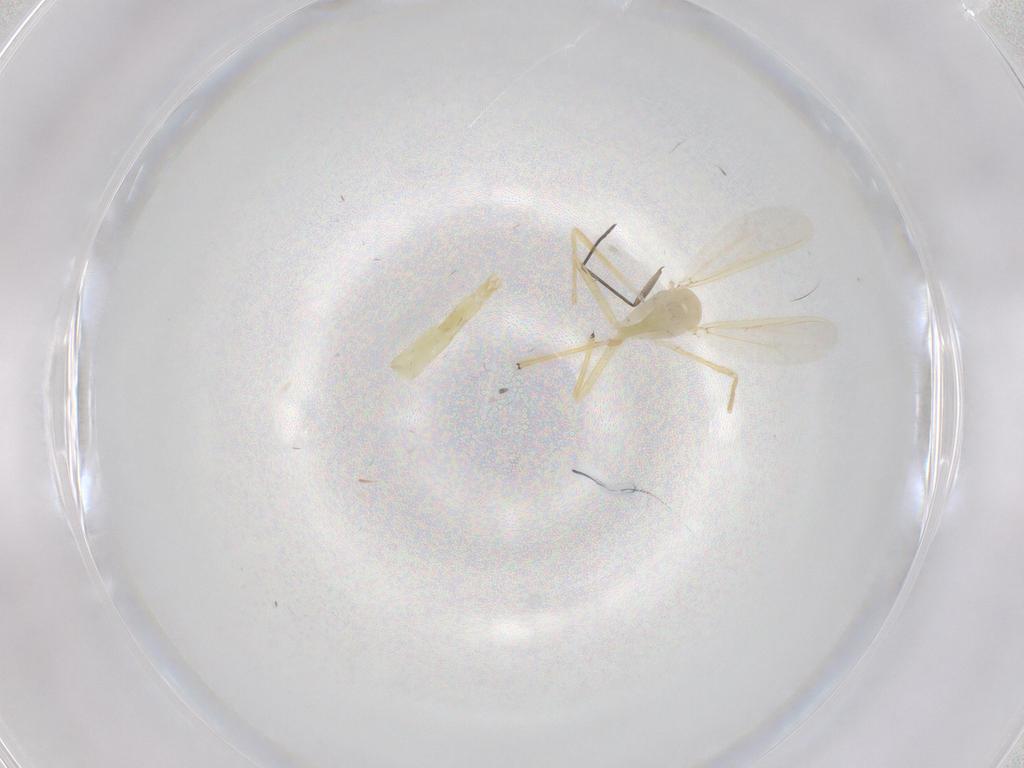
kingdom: Animalia
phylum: Arthropoda
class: Insecta
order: Diptera
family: Chironomidae
